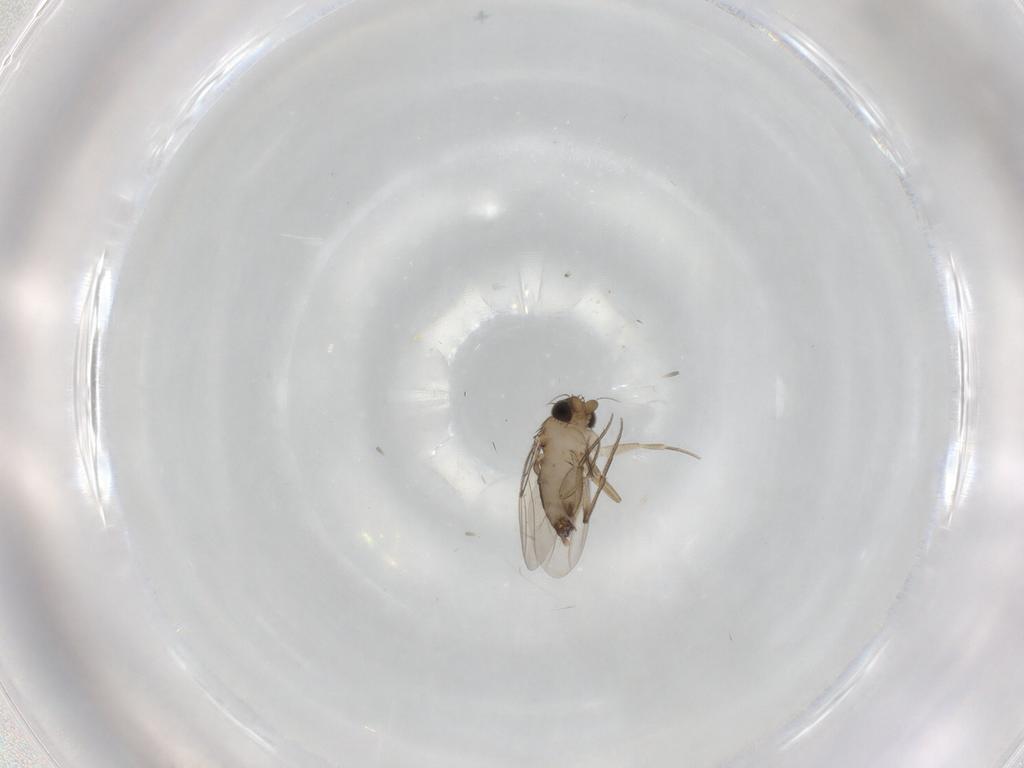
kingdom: Animalia
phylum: Arthropoda
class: Insecta
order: Diptera
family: Phoridae
